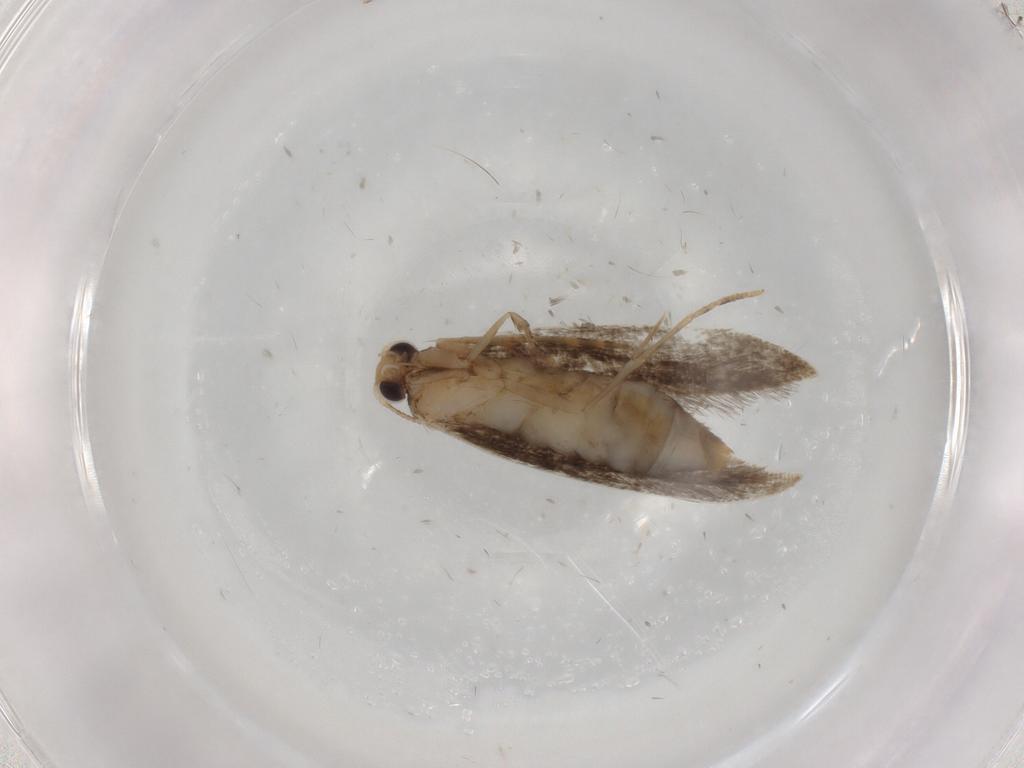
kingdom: Animalia
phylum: Arthropoda
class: Insecta
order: Lepidoptera
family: Tineidae
